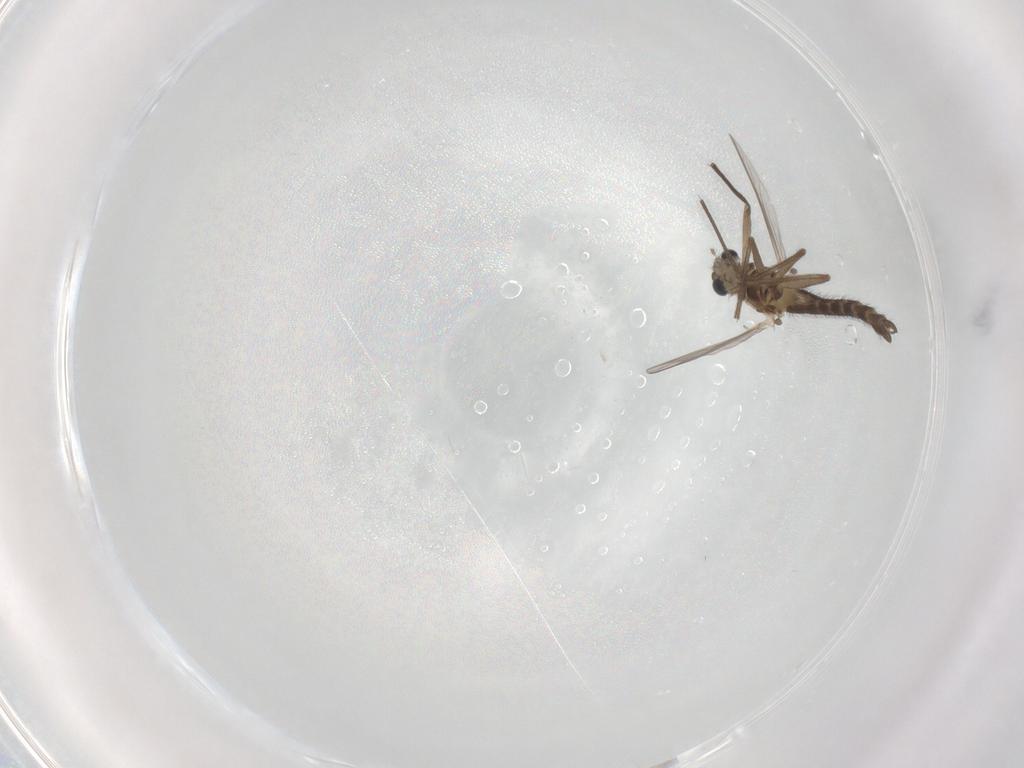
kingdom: Animalia
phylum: Arthropoda
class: Insecta
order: Diptera
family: Chironomidae
